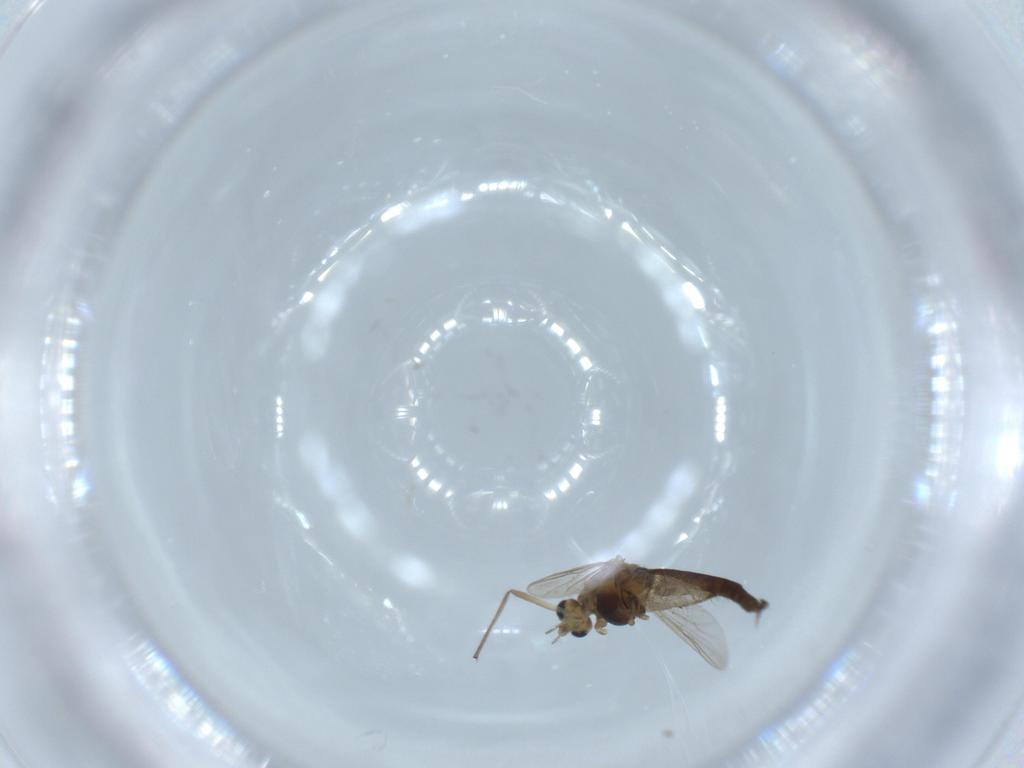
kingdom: Animalia
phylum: Arthropoda
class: Insecta
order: Diptera
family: Chironomidae
